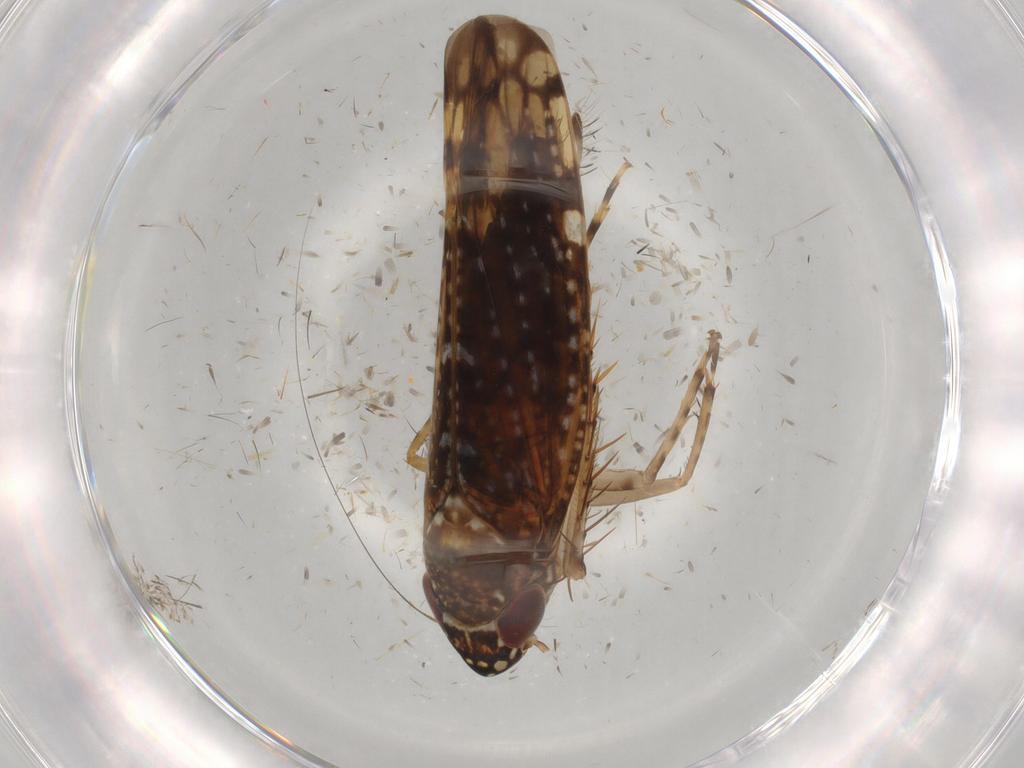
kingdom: Animalia
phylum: Arthropoda
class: Insecta
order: Hemiptera
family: Cicadellidae
